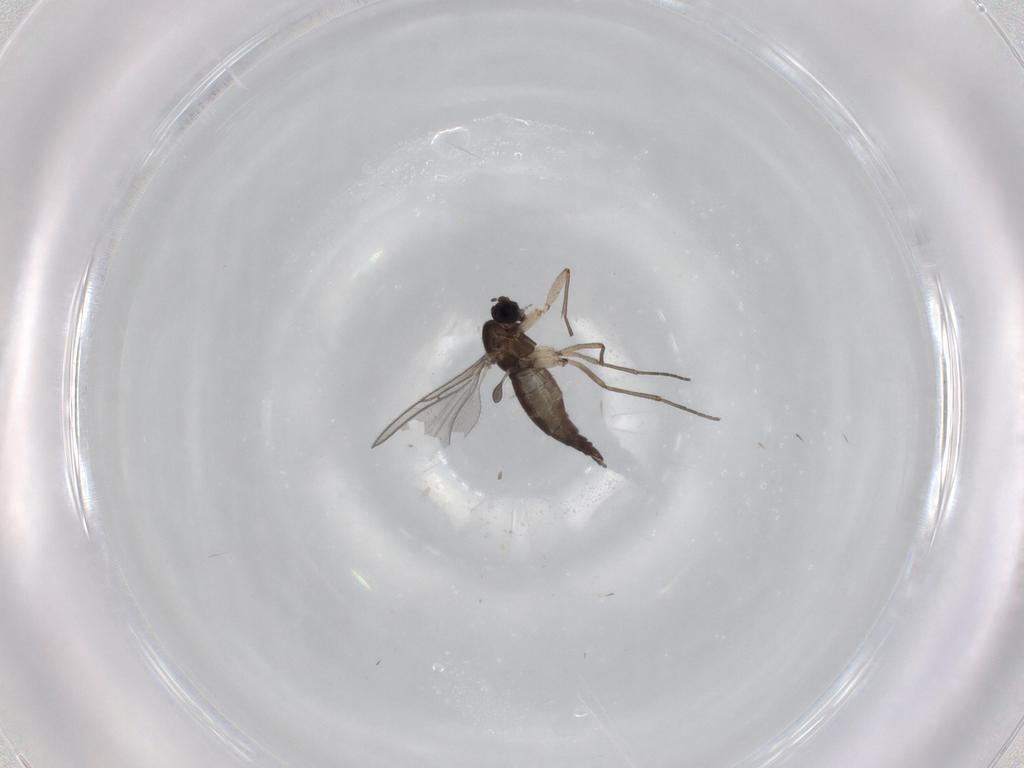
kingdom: Animalia
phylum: Arthropoda
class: Insecta
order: Diptera
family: Sciaridae
